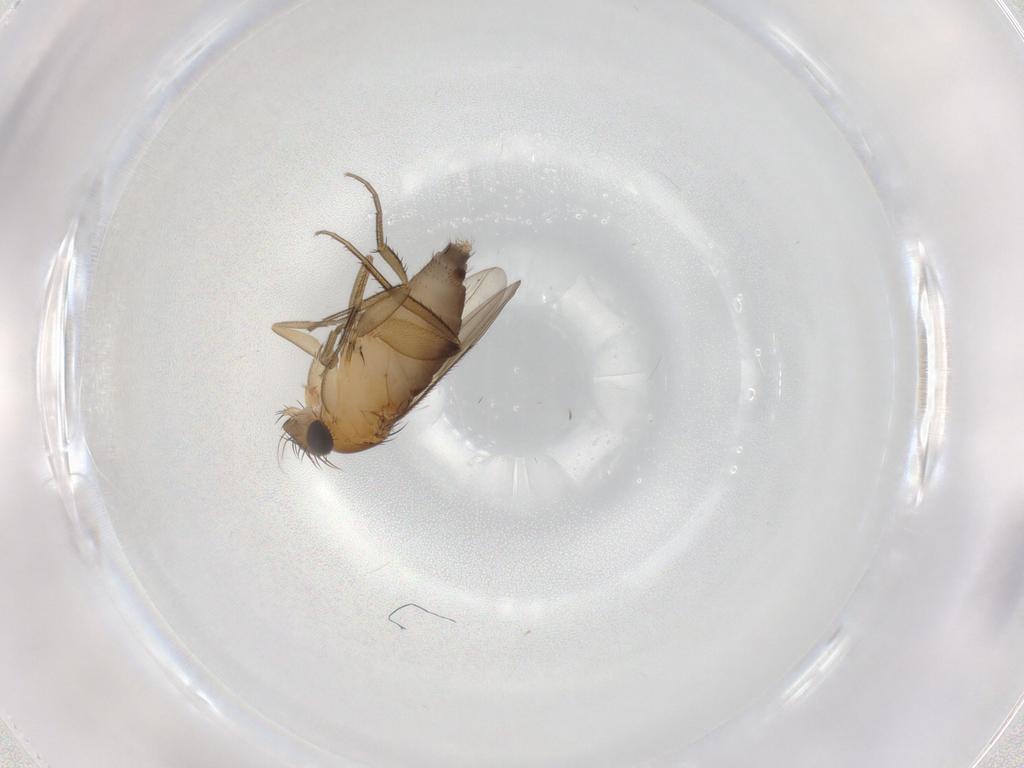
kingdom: Animalia
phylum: Arthropoda
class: Insecta
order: Diptera
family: Phoridae
